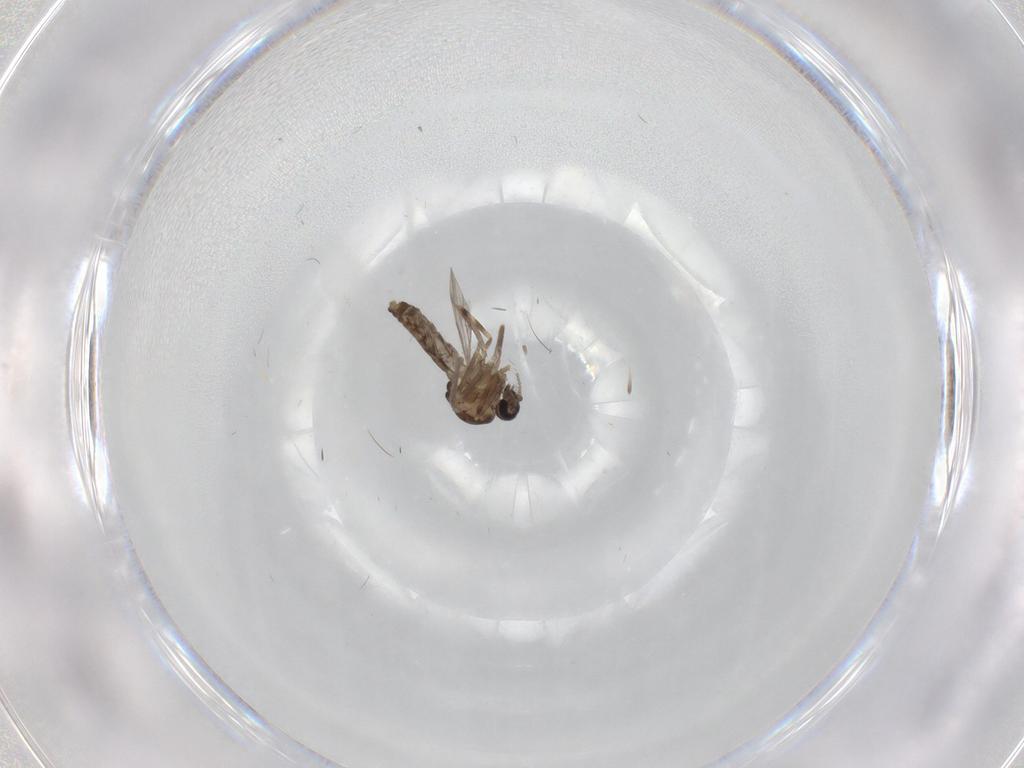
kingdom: Animalia
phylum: Arthropoda
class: Insecta
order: Diptera
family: Ceratopogonidae
